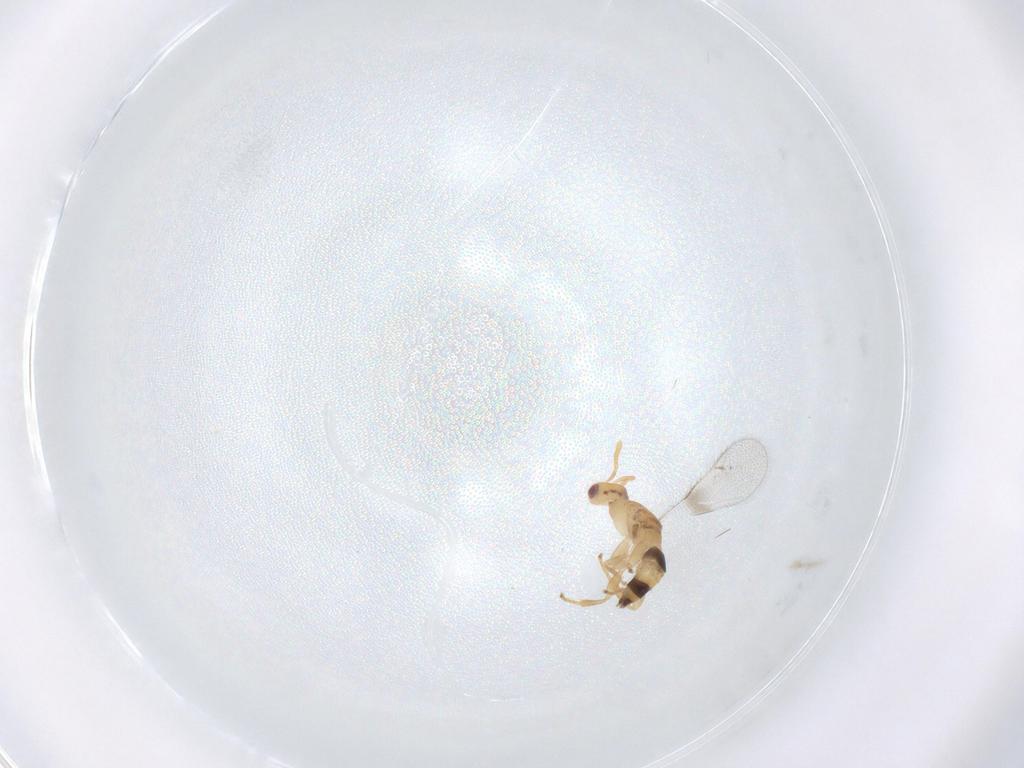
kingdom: Animalia
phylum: Arthropoda
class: Insecta
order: Hymenoptera
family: Torymidae
